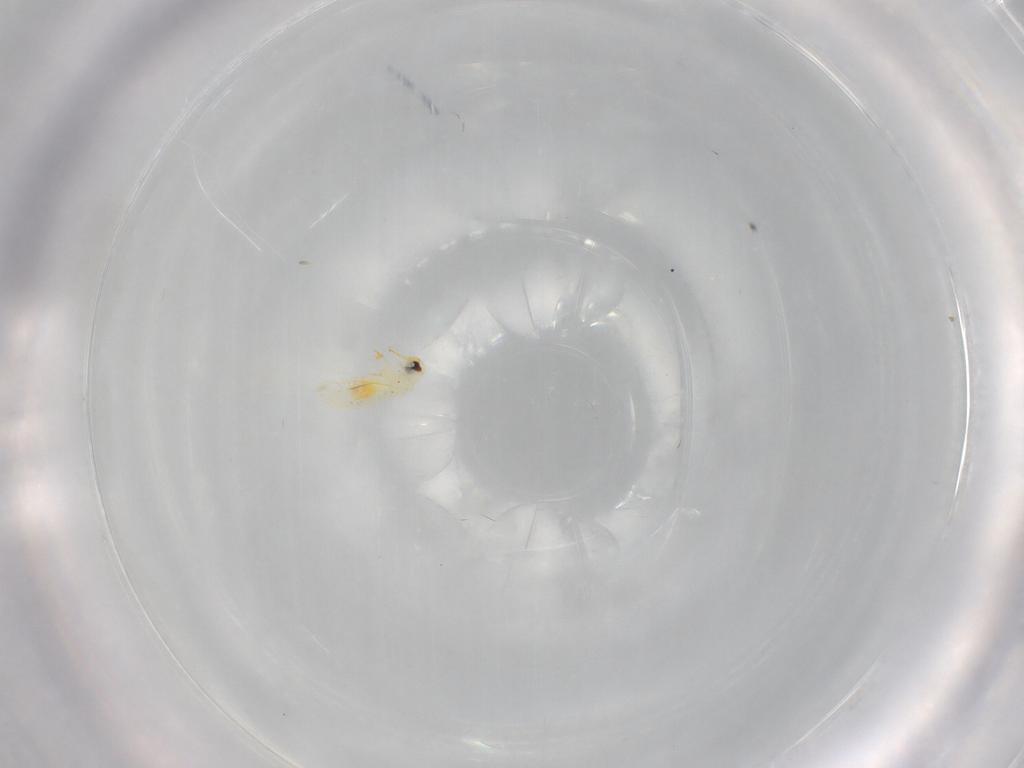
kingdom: Animalia
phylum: Arthropoda
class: Insecta
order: Hemiptera
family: Aleyrodidae
